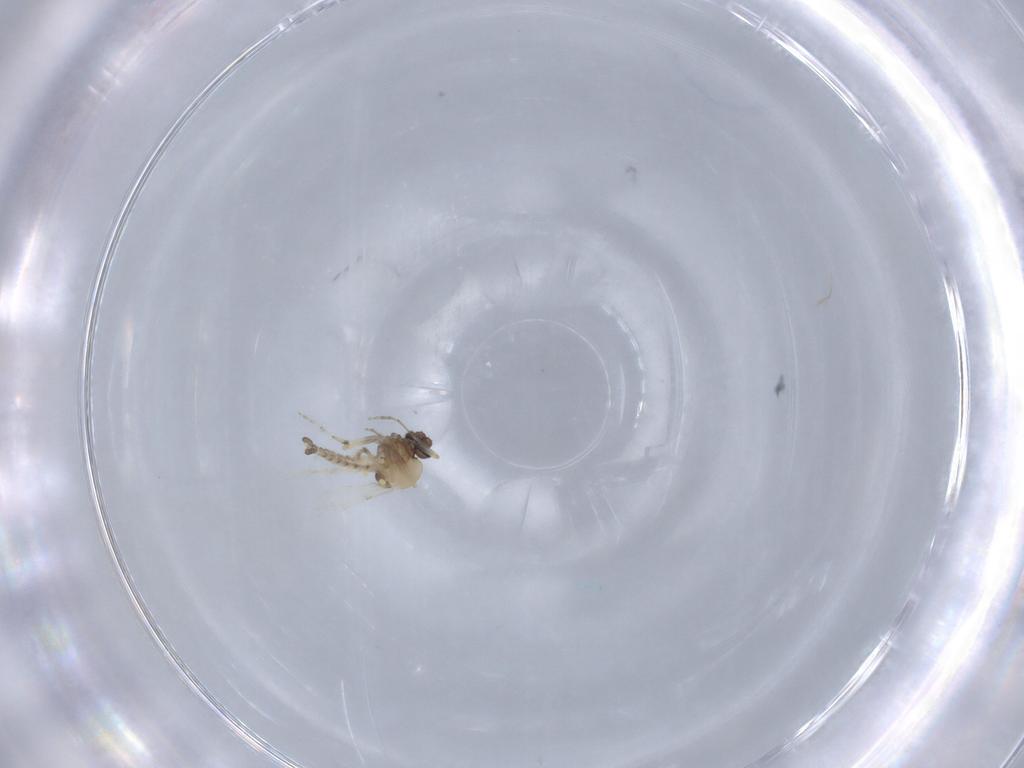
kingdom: Animalia
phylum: Arthropoda
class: Insecta
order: Diptera
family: Ceratopogonidae
